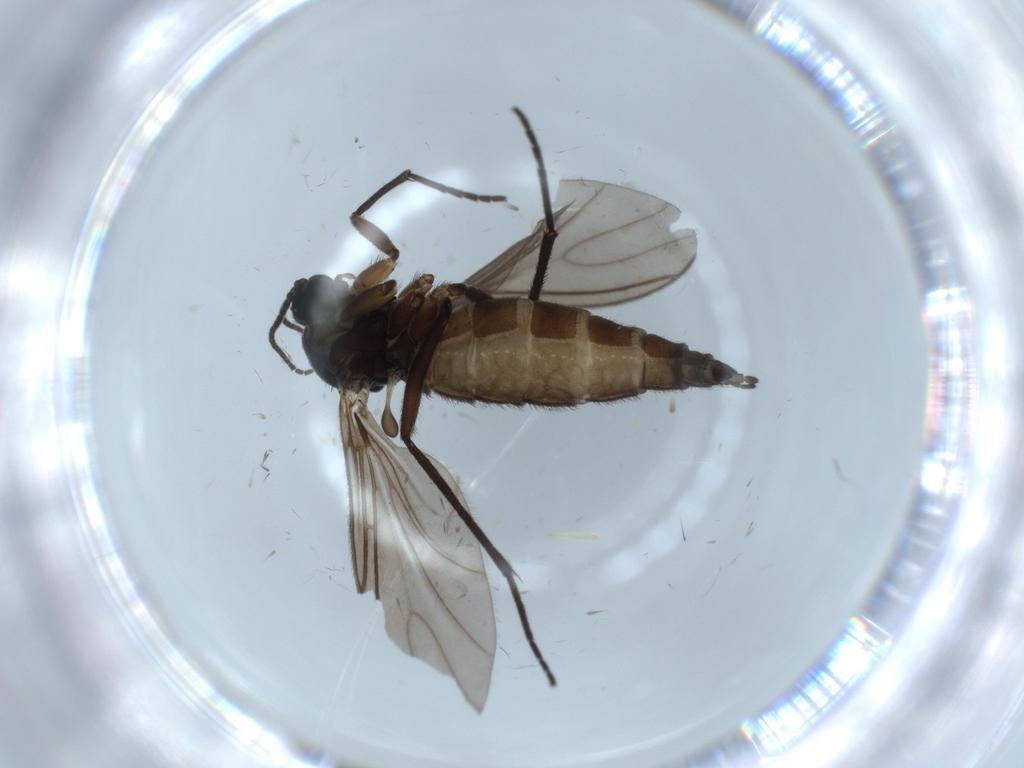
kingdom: Animalia
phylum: Arthropoda
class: Insecta
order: Diptera
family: Sciaridae
